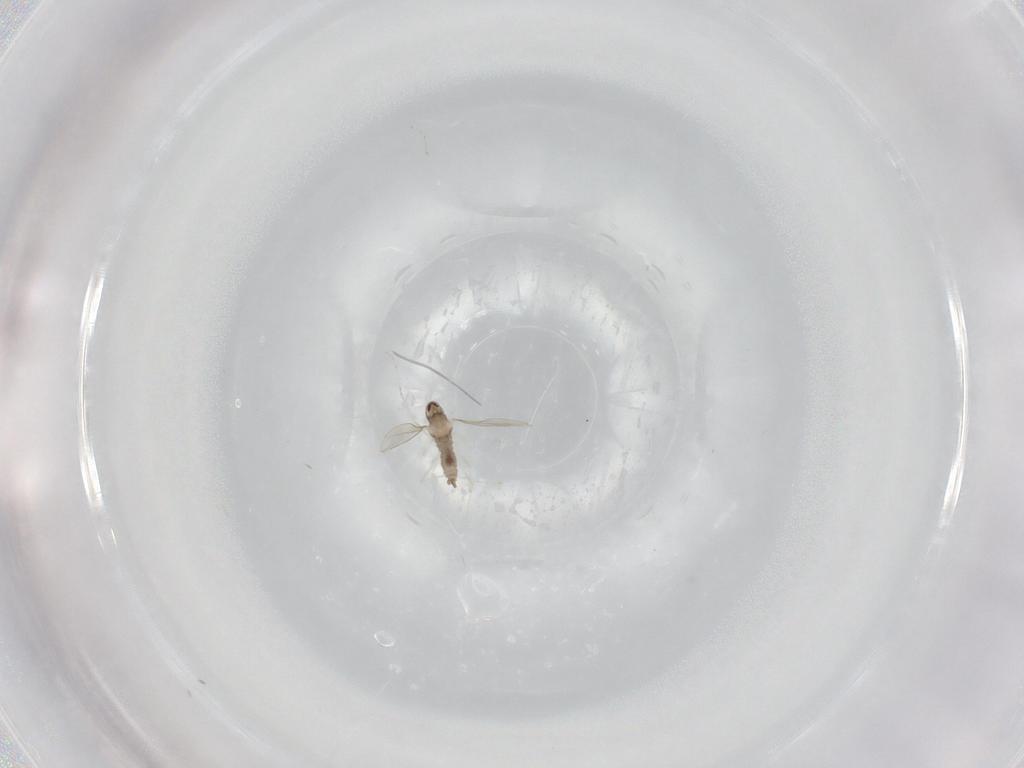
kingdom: Animalia
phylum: Arthropoda
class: Insecta
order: Diptera
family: Cecidomyiidae
